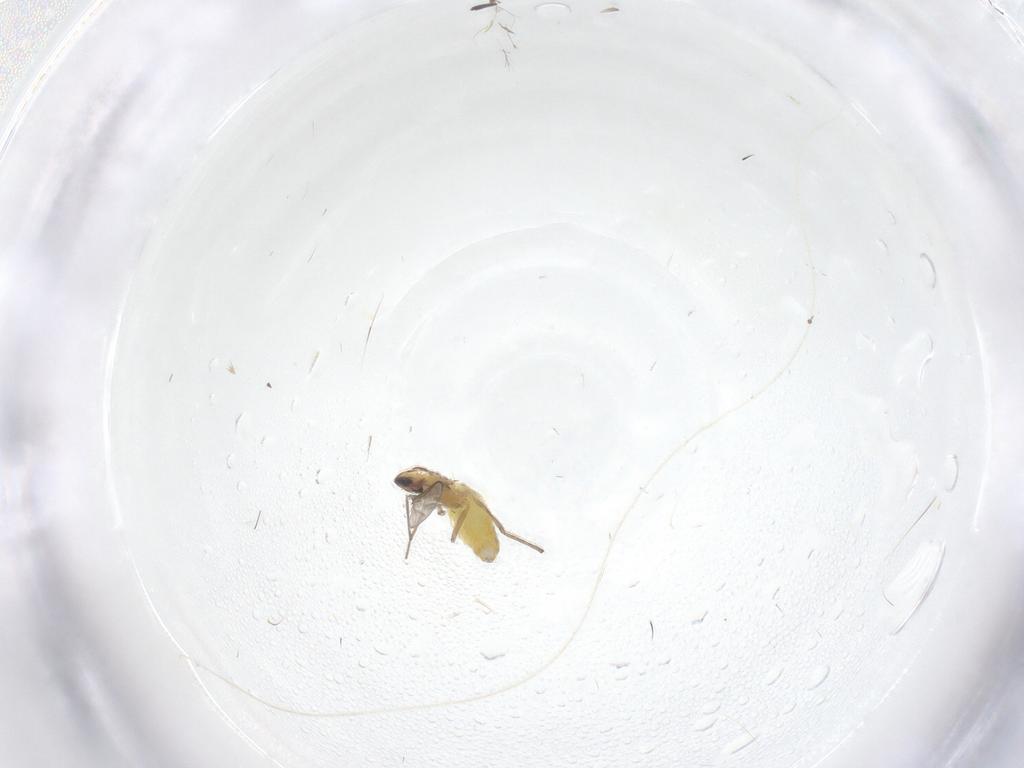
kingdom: Animalia
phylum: Arthropoda
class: Insecta
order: Diptera
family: Chironomidae
